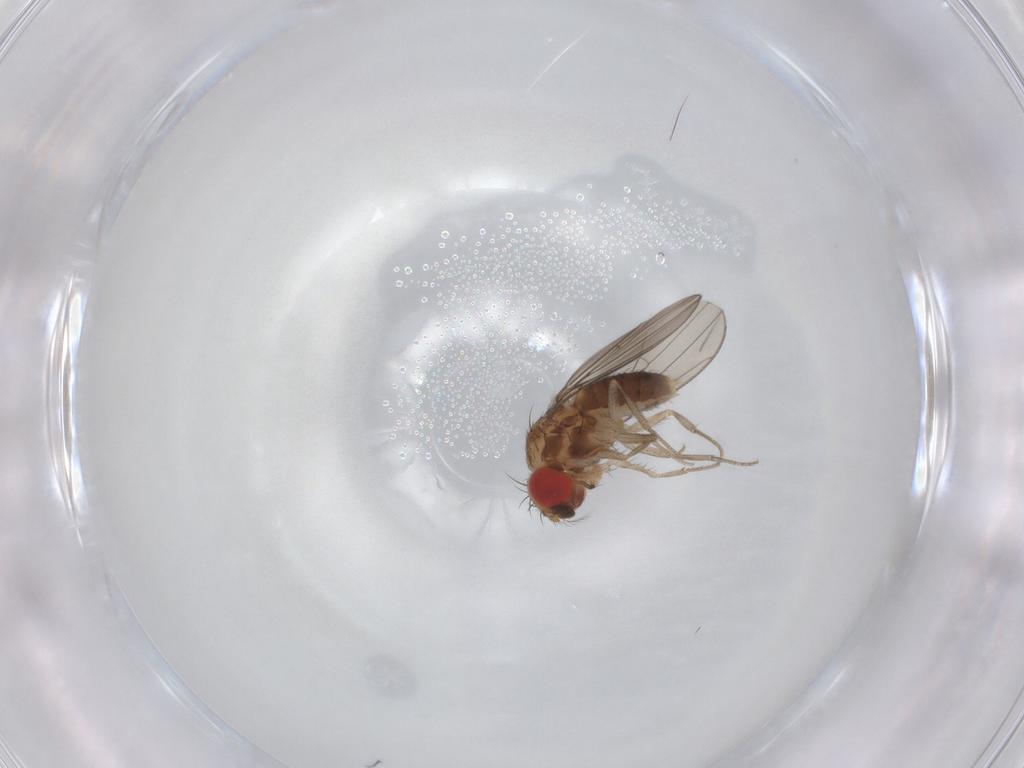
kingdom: Animalia
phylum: Arthropoda
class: Insecta
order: Diptera
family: Drosophilidae
